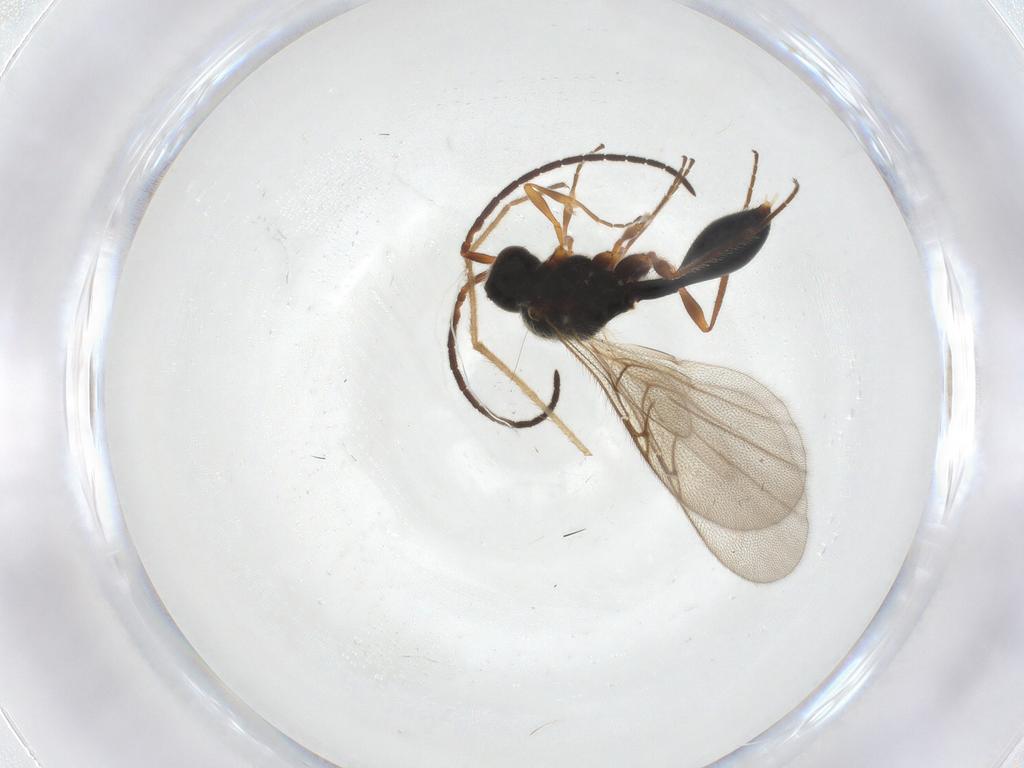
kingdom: Animalia
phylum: Arthropoda
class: Insecta
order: Hymenoptera
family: Diapriidae
